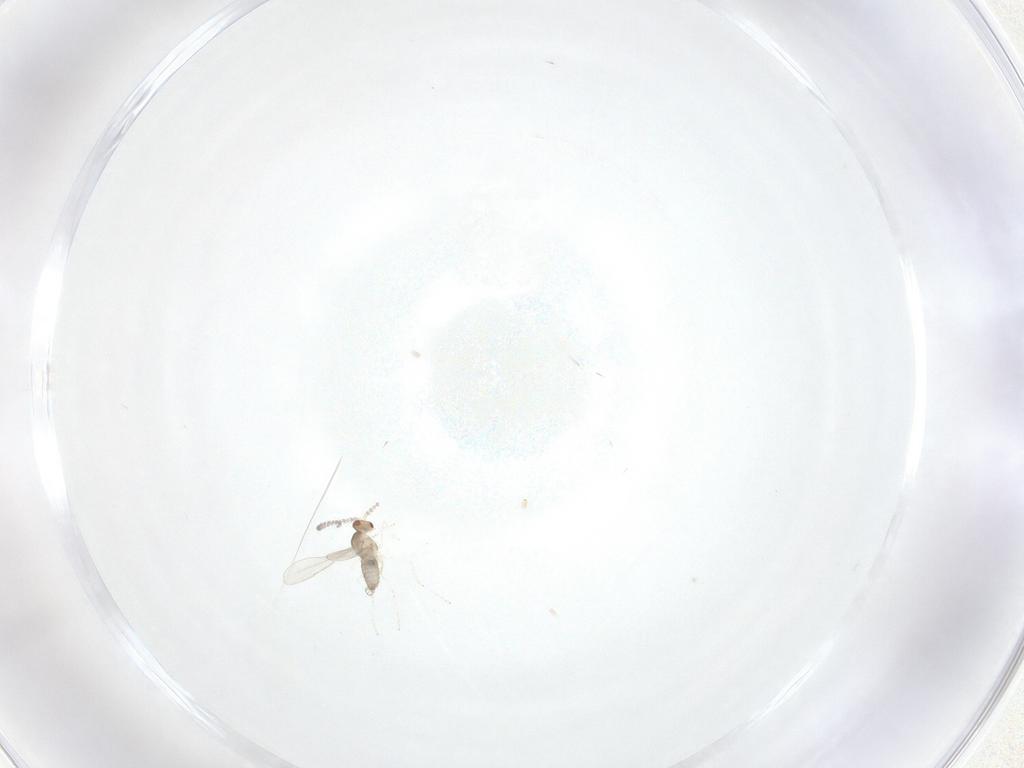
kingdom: Animalia
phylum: Arthropoda
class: Insecta
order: Diptera
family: Cecidomyiidae
